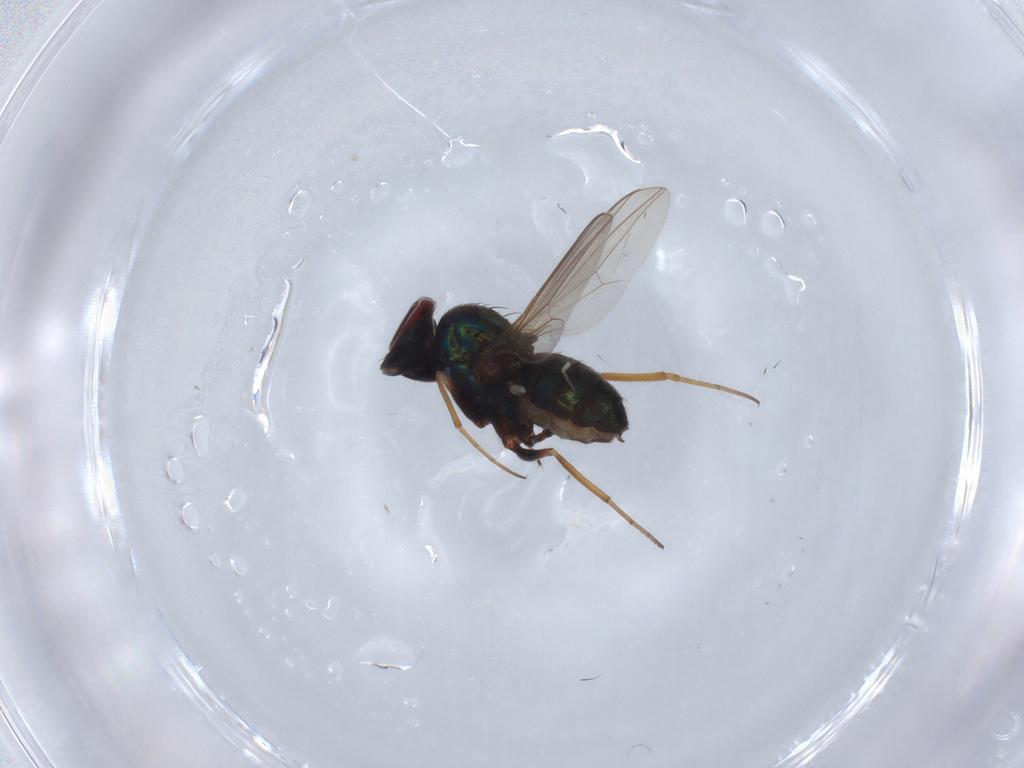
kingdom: Animalia
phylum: Arthropoda
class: Insecta
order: Diptera
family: Dolichopodidae
